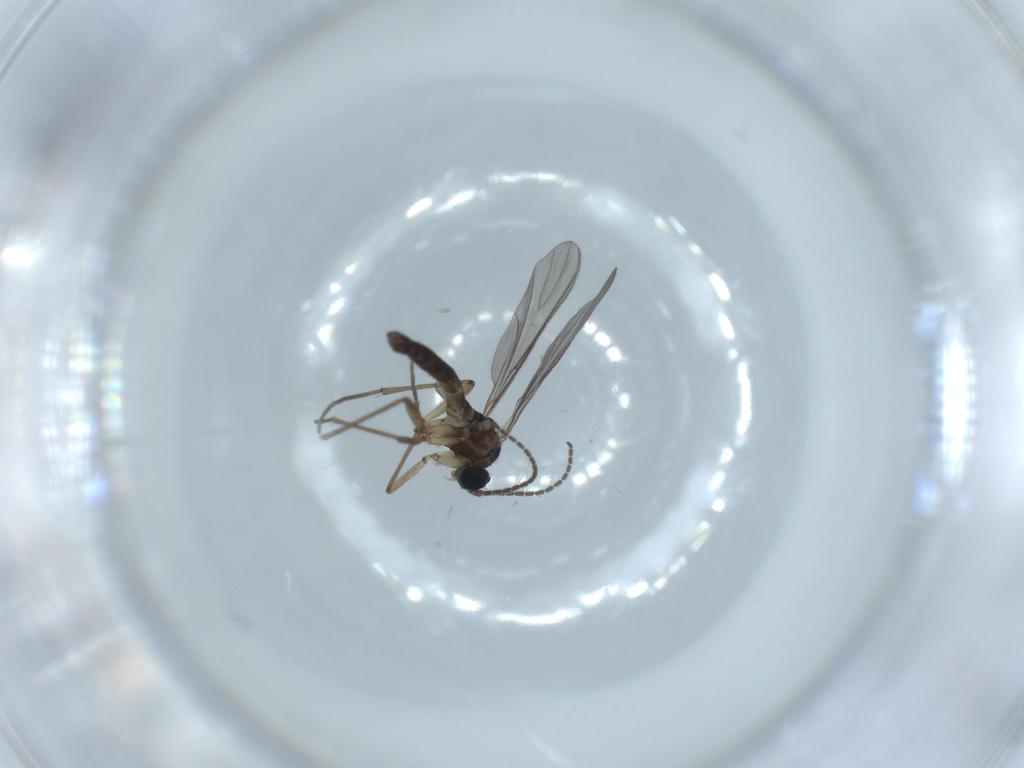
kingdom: Animalia
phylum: Arthropoda
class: Insecta
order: Diptera
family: Sciaridae
